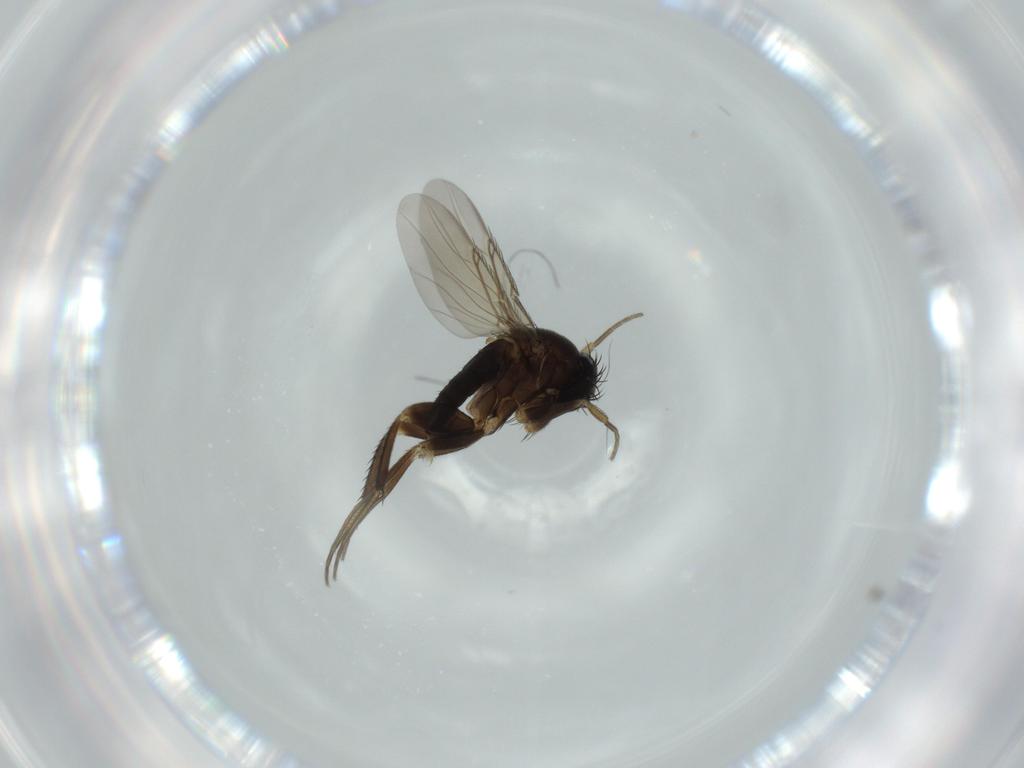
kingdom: Animalia
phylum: Arthropoda
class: Insecta
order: Diptera
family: Phoridae
